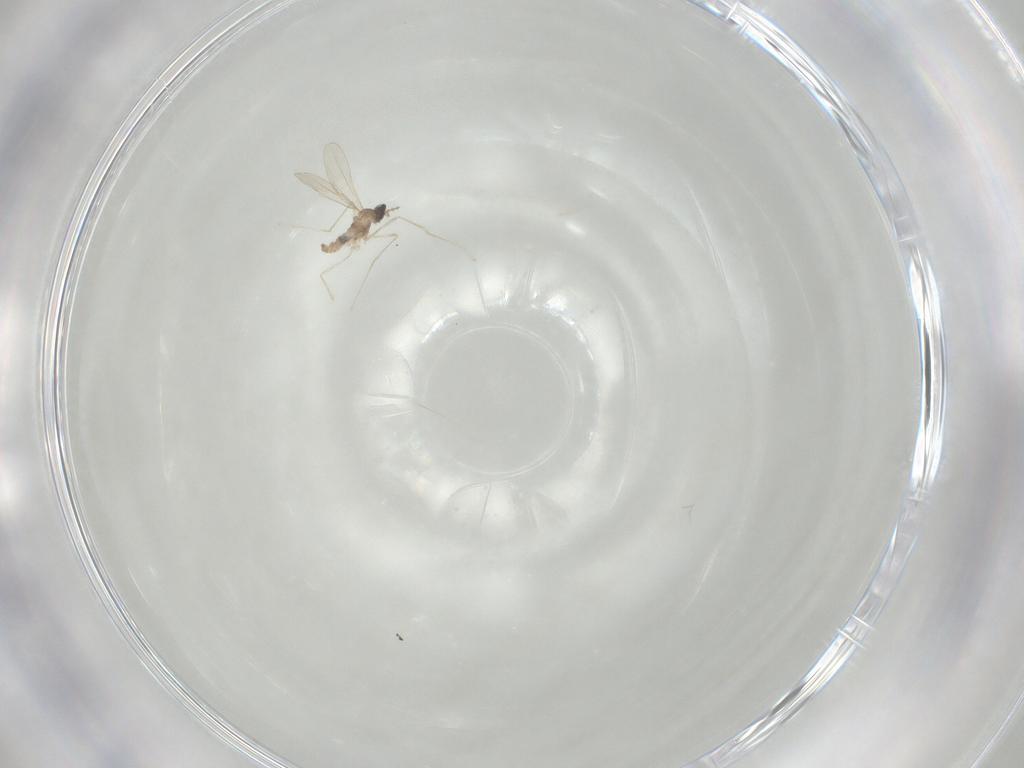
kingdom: Animalia
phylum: Arthropoda
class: Insecta
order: Diptera
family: Cecidomyiidae
